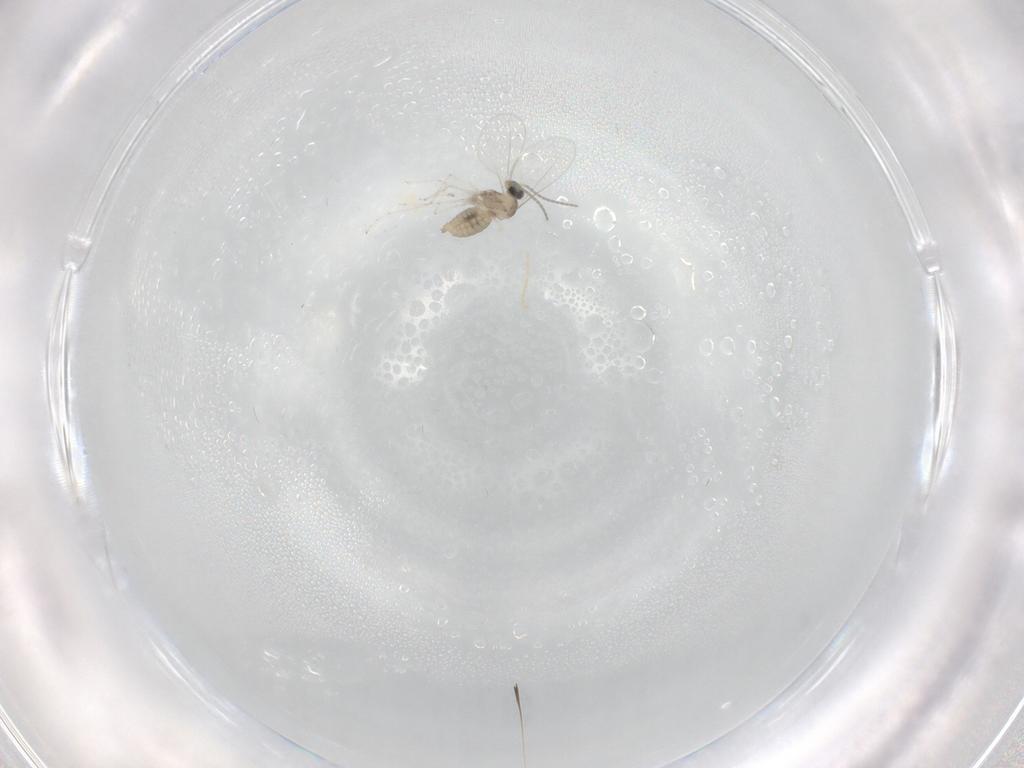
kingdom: Animalia
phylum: Arthropoda
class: Insecta
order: Diptera
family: Cecidomyiidae
